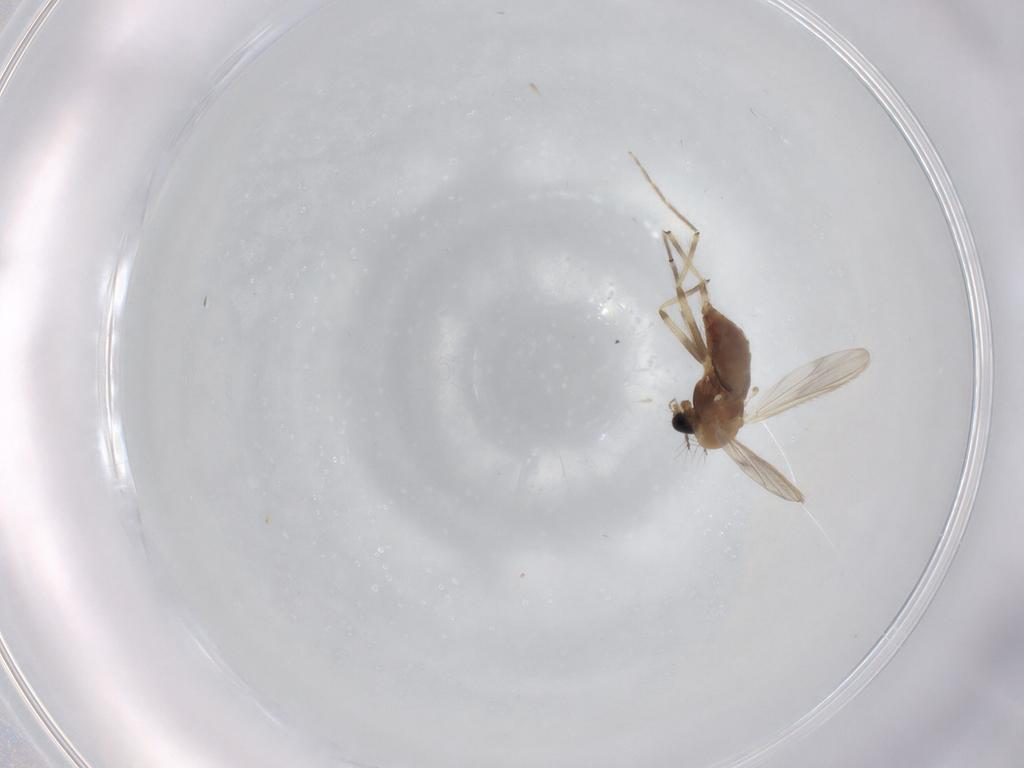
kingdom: Animalia
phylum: Arthropoda
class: Insecta
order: Diptera
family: Chironomidae
